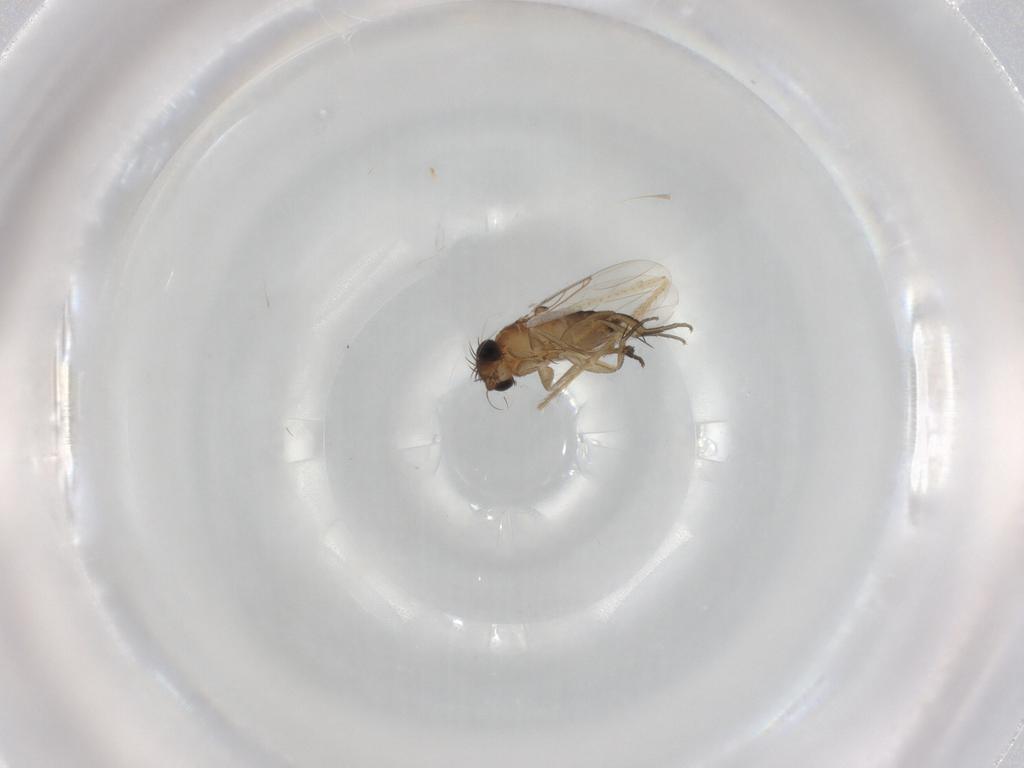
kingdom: Animalia
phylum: Arthropoda
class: Insecta
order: Diptera
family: Phoridae
